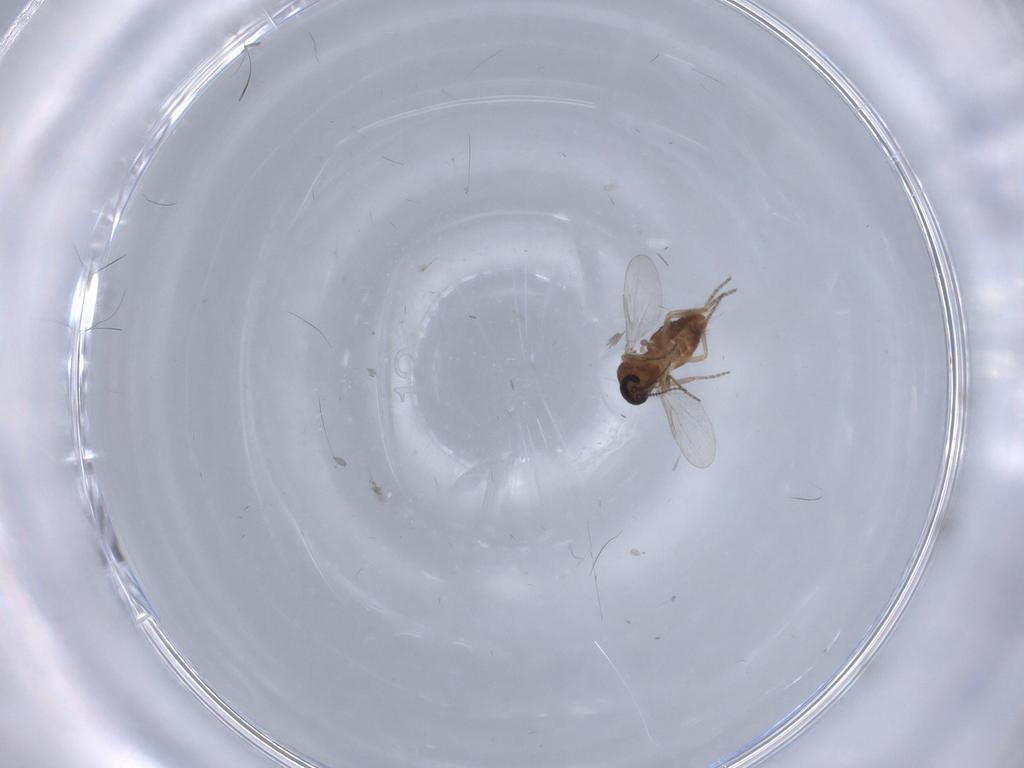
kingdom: Animalia
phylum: Arthropoda
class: Insecta
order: Diptera
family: Ceratopogonidae
